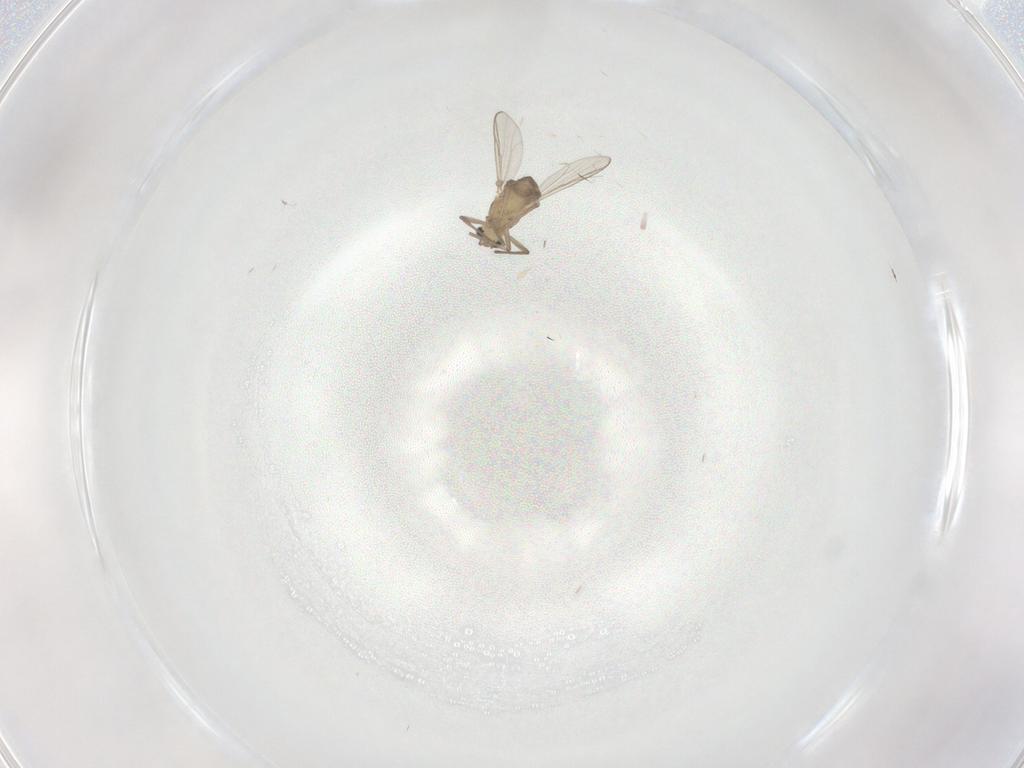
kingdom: Animalia
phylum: Arthropoda
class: Insecta
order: Diptera
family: Chironomidae
